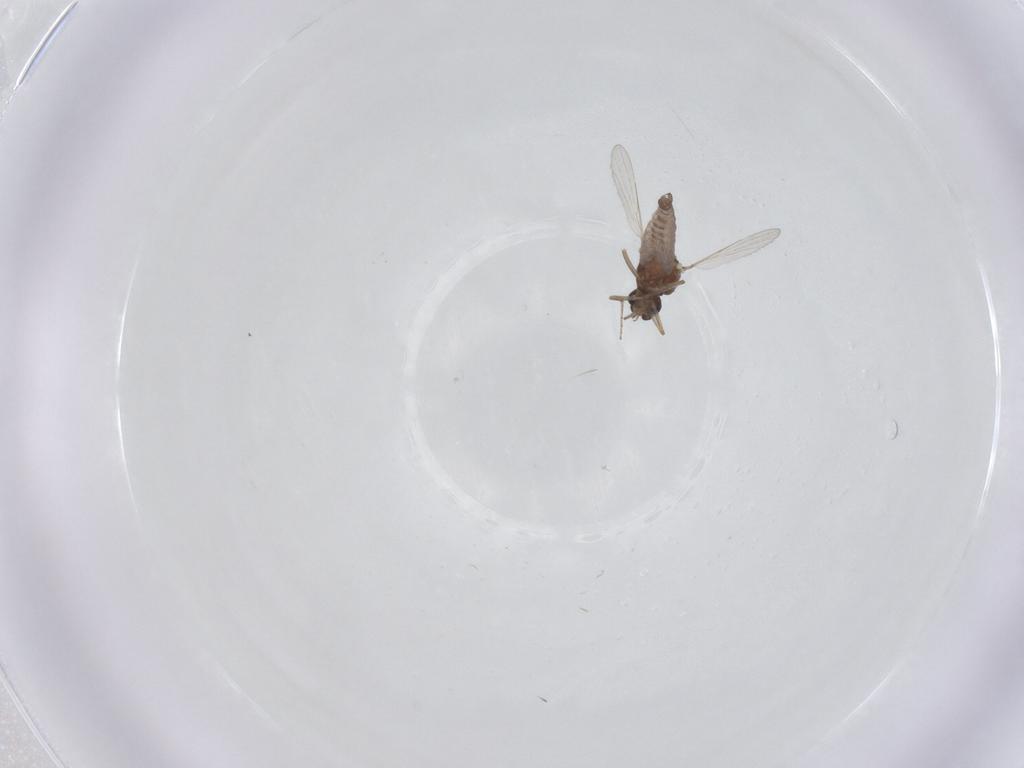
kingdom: Animalia
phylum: Arthropoda
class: Insecta
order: Diptera
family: Ceratopogonidae
